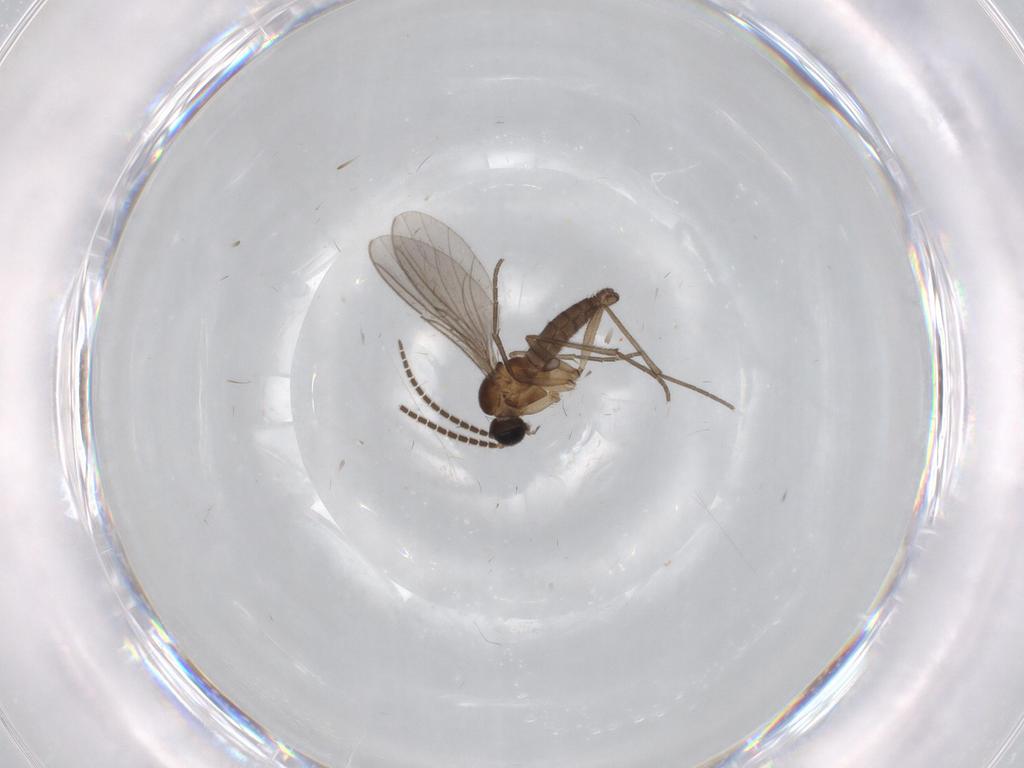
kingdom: Animalia
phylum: Arthropoda
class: Insecta
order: Diptera
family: Sciaridae
